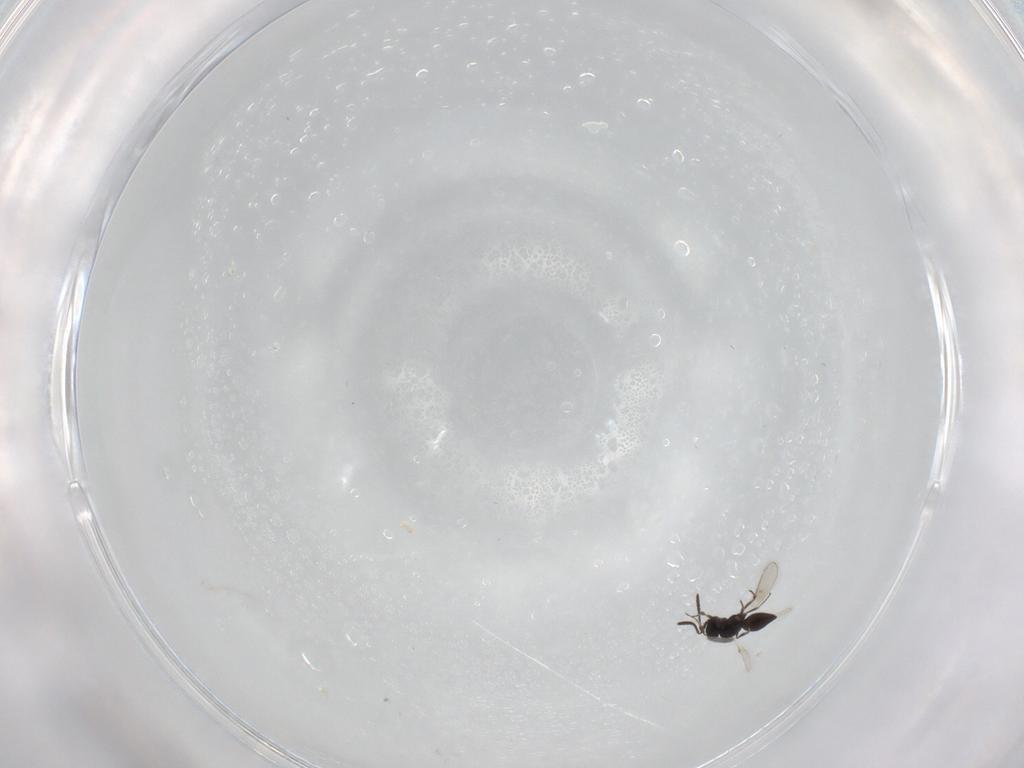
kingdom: Animalia
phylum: Arthropoda
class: Insecta
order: Hymenoptera
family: Scelionidae
